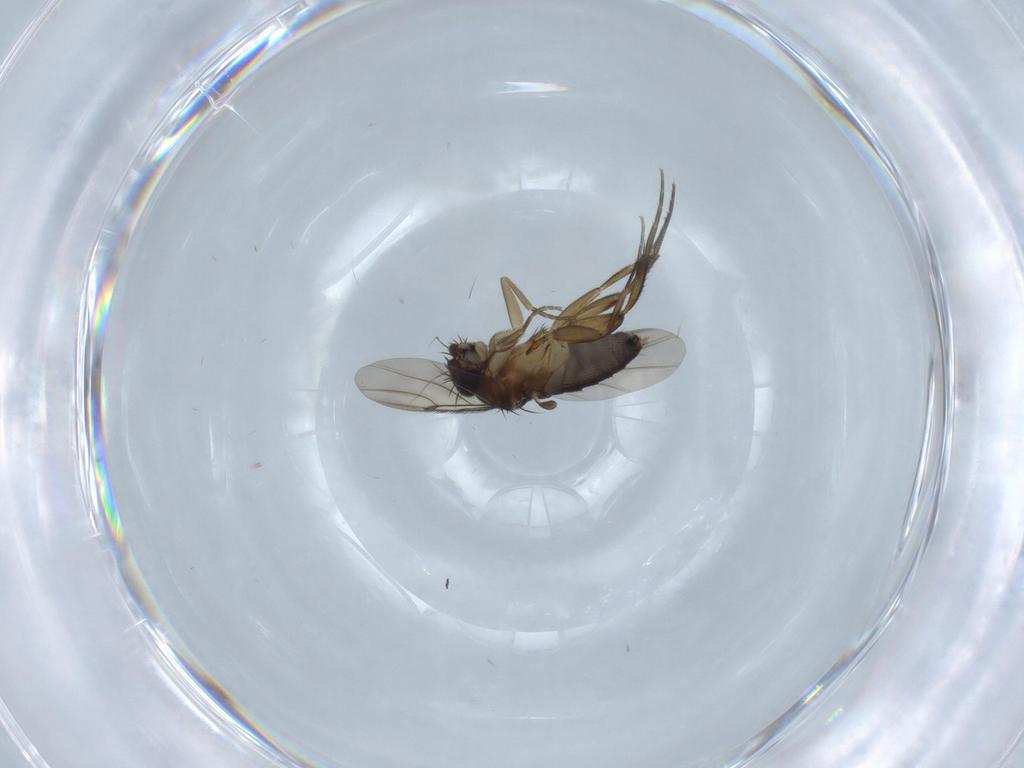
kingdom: Animalia
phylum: Arthropoda
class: Insecta
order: Diptera
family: Phoridae
